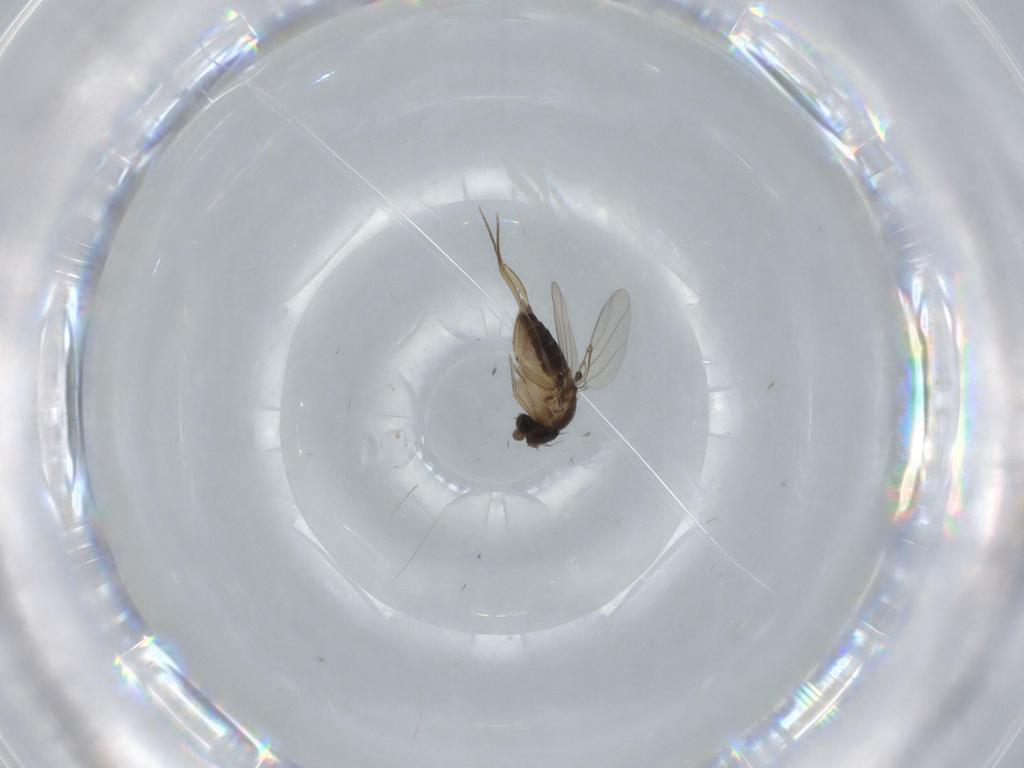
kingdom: Animalia
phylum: Arthropoda
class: Insecta
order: Diptera
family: Phoridae
